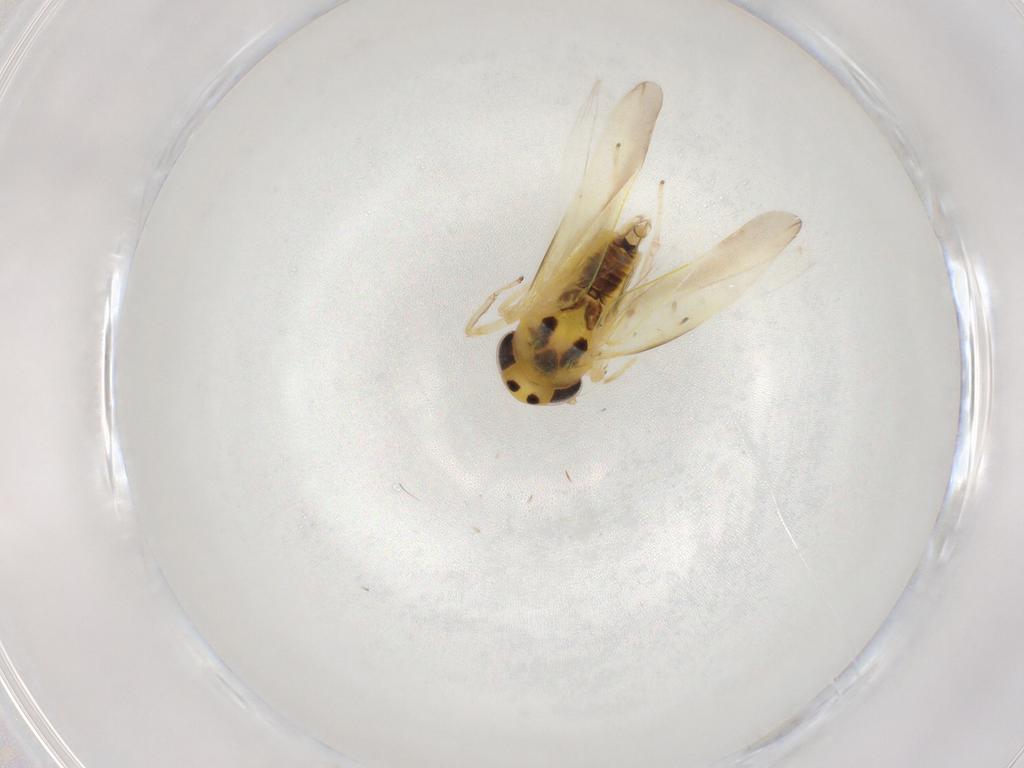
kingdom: Animalia
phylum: Arthropoda
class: Insecta
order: Hemiptera
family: Cicadellidae
